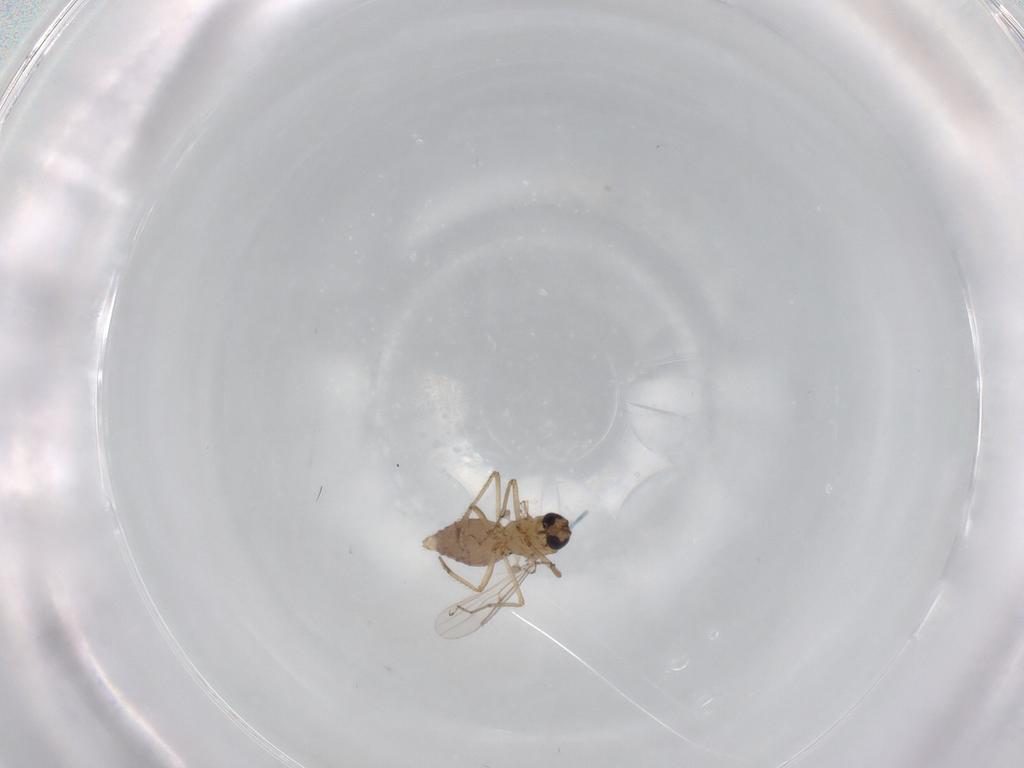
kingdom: Animalia
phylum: Arthropoda
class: Insecta
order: Diptera
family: Ceratopogonidae
